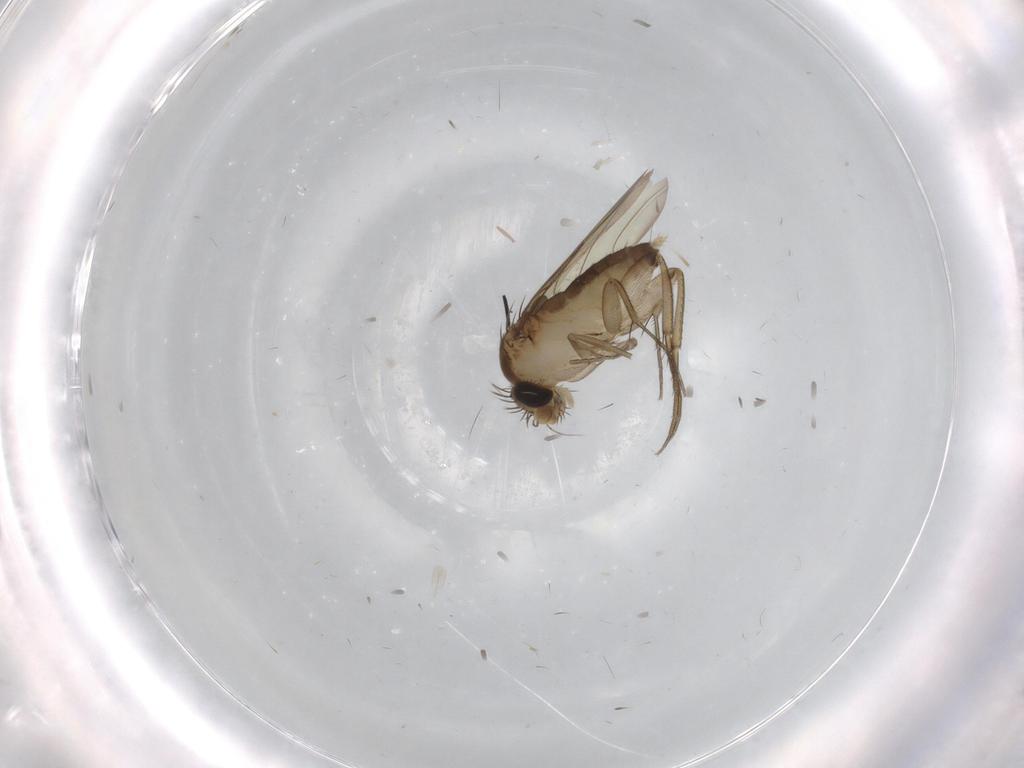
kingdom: Animalia
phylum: Arthropoda
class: Insecta
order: Diptera
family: Phoridae
